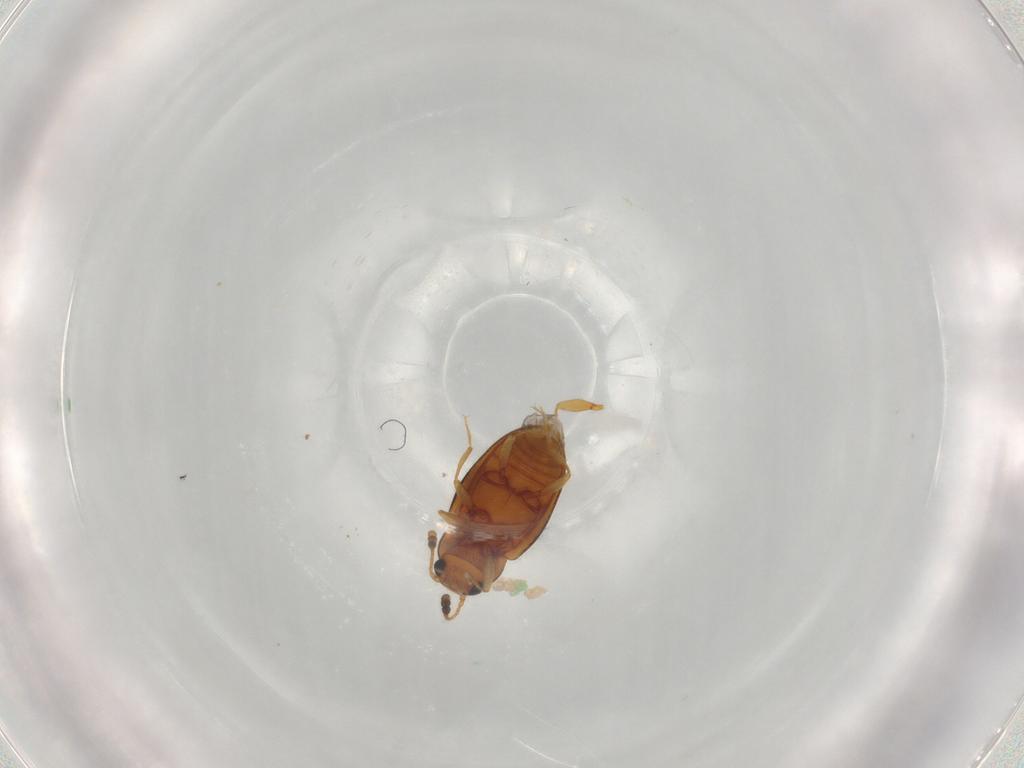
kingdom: Animalia
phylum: Arthropoda
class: Insecta
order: Coleoptera
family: Erotylidae
